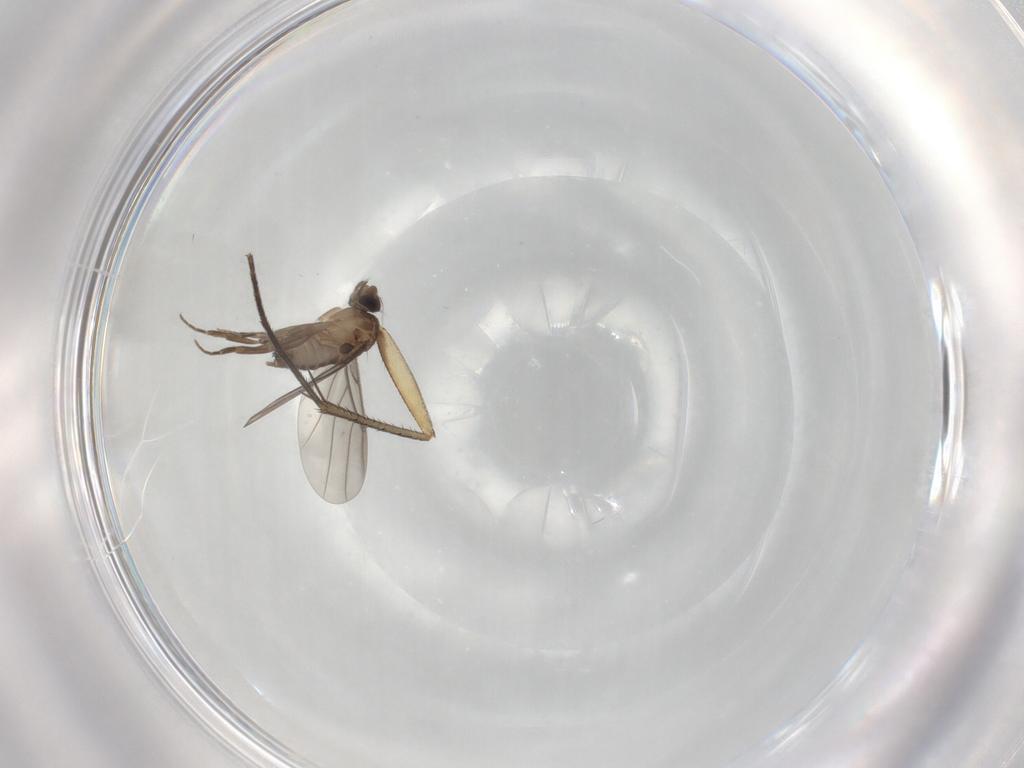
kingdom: Animalia
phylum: Arthropoda
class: Insecta
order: Diptera
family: Mycetophilidae
